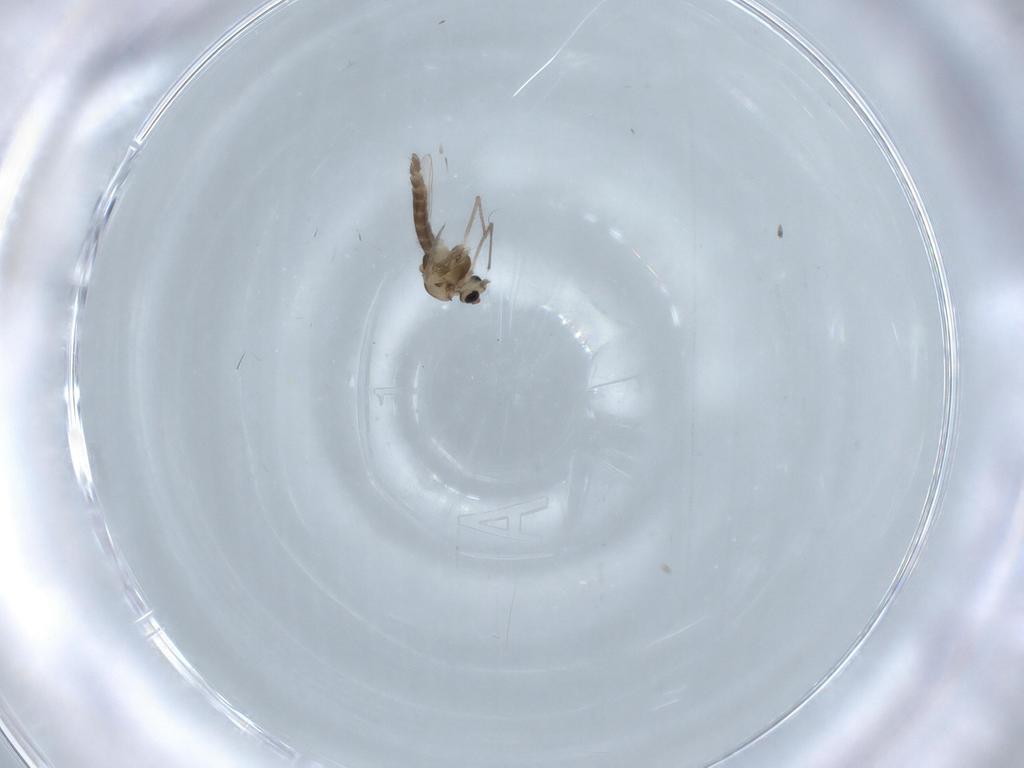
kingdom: Animalia
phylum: Arthropoda
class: Insecta
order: Diptera
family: Chironomidae
